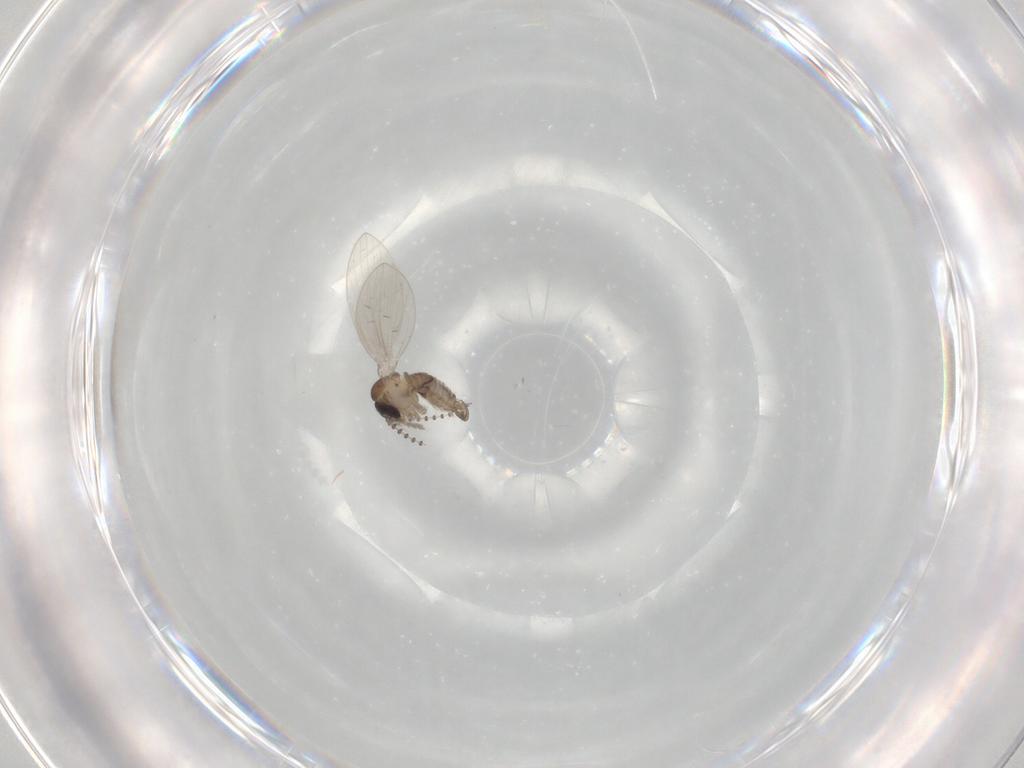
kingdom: Animalia
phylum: Arthropoda
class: Insecta
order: Diptera
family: Psychodidae
